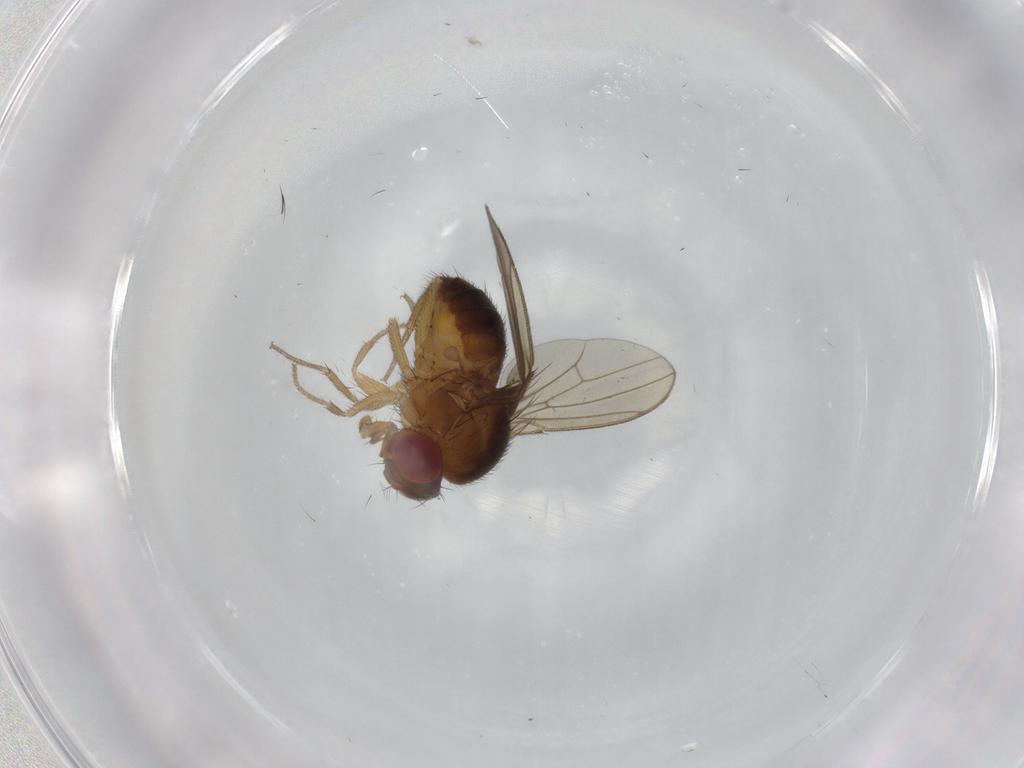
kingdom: Animalia
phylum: Arthropoda
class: Insecta
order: Diptera
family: Drosophilidae
